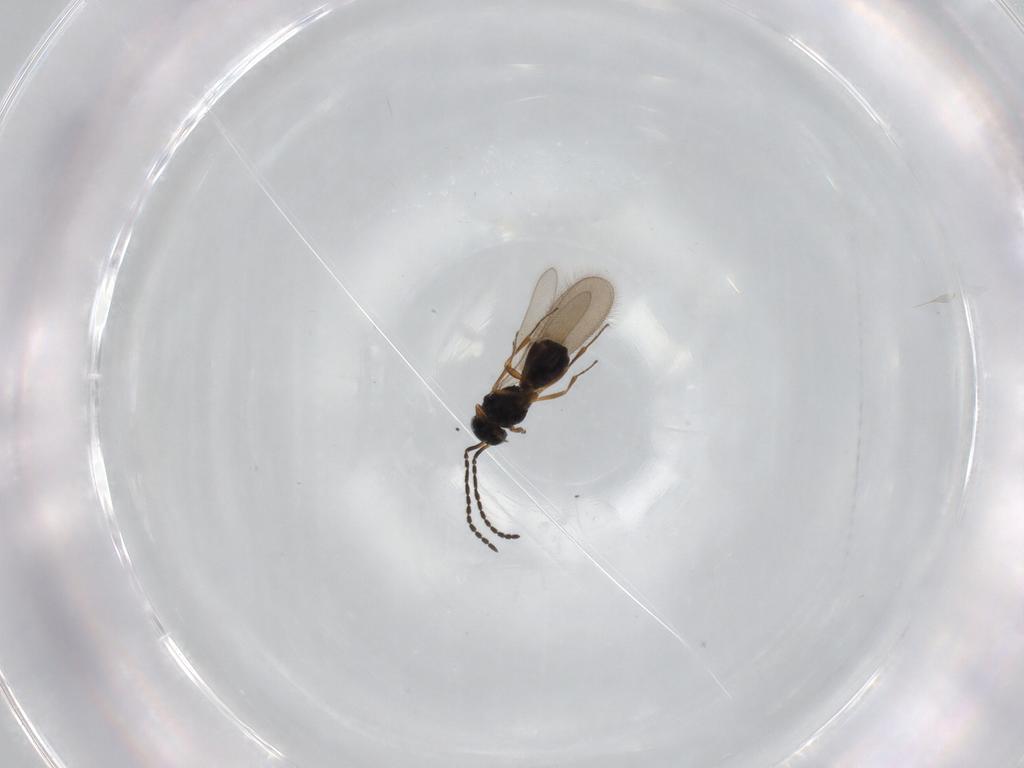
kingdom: Animalia
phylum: Arthropoda
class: Insecta
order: Hymenoptera
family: Scelionidae
